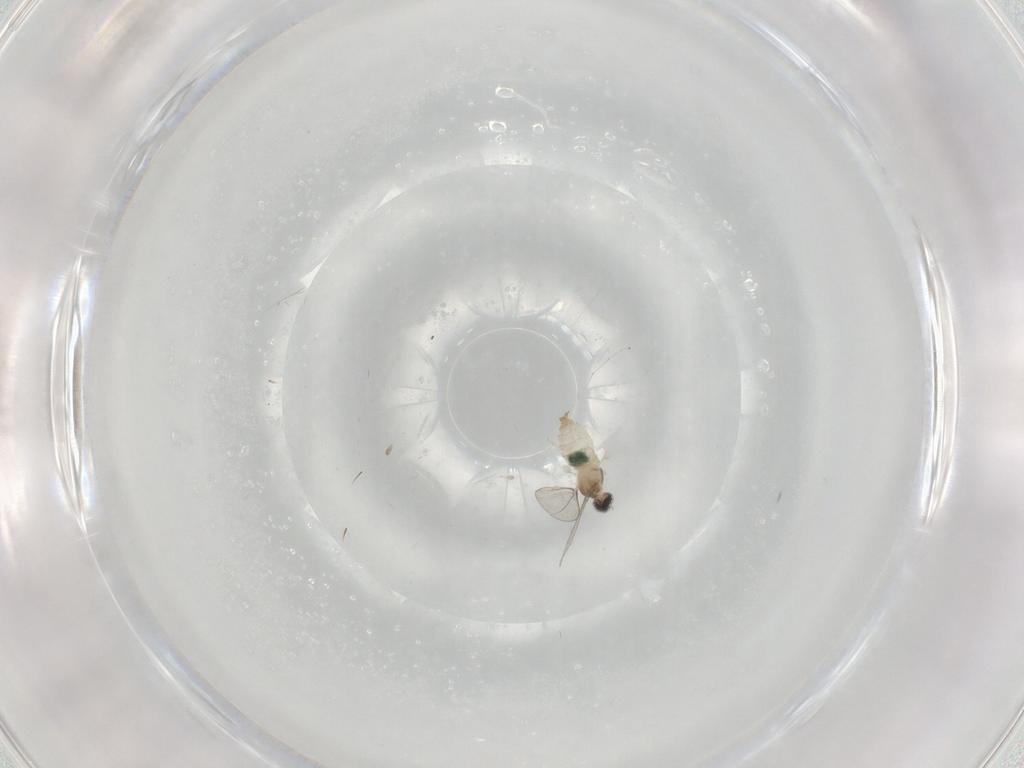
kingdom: Animalia
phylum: Arthropoda
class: Insecta
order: Diptera
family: Cecidomyiidae
